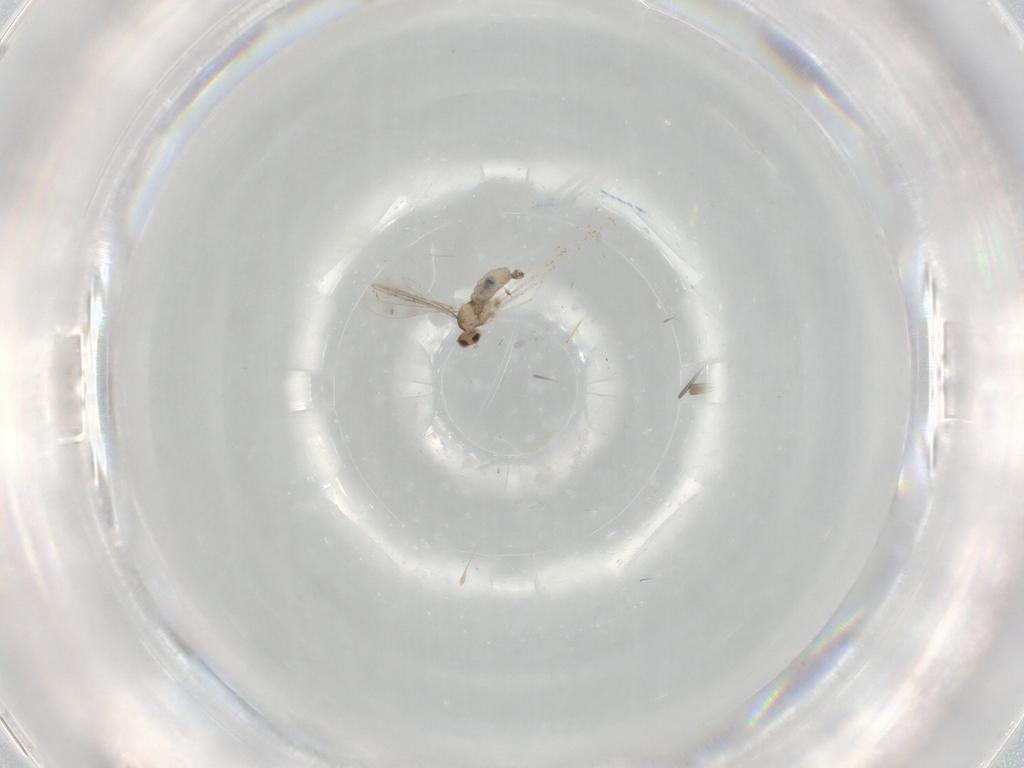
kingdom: Animalia
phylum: Arthropoda
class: Insecta
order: Diptera
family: Cecidomyiidae
